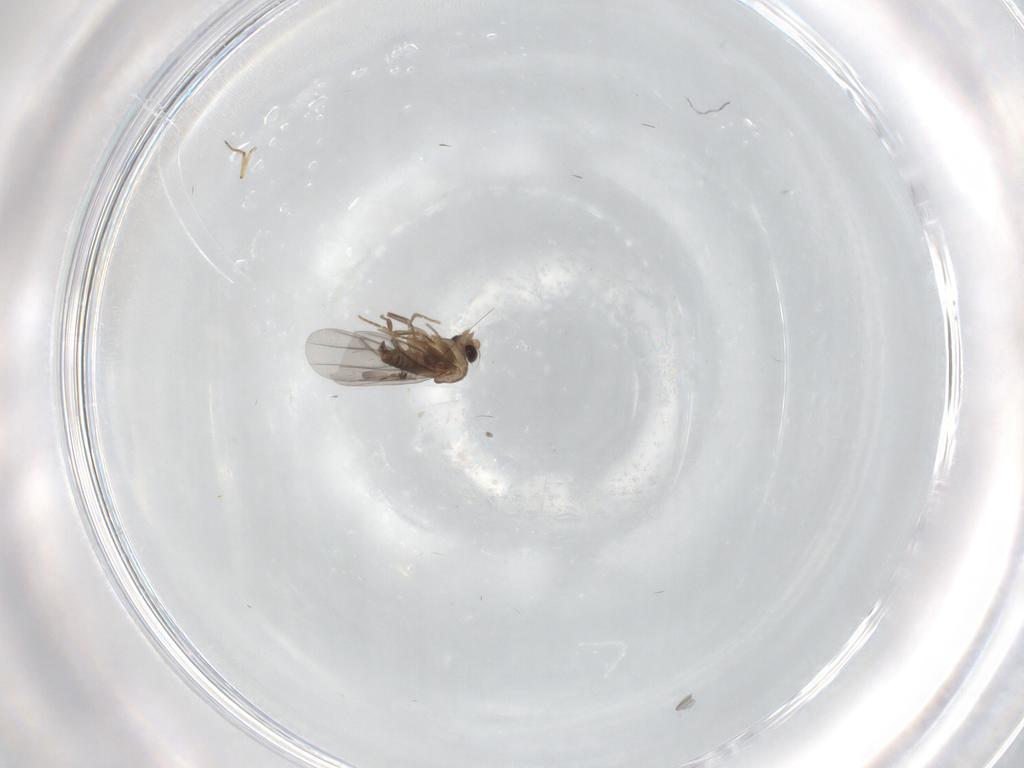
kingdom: Animalia
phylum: Arthropoda
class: Insecta
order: Diptera
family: Sciaridae
